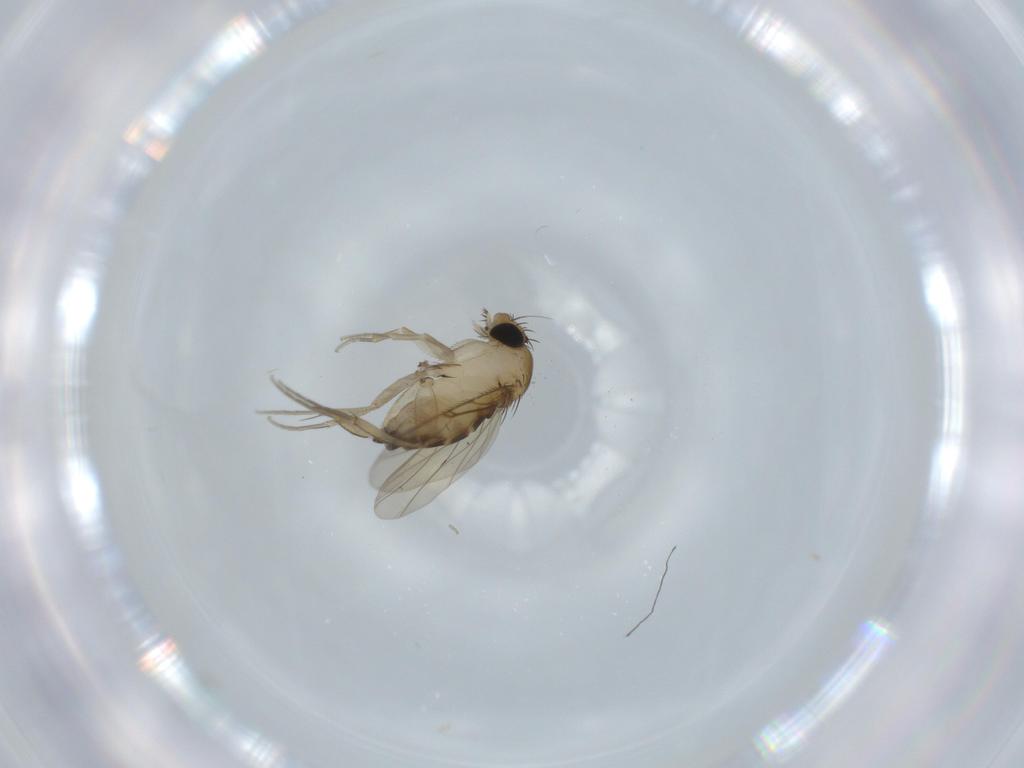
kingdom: Animalia
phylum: Arthropoda
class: Insecta
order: Diptera
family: Phoridae
